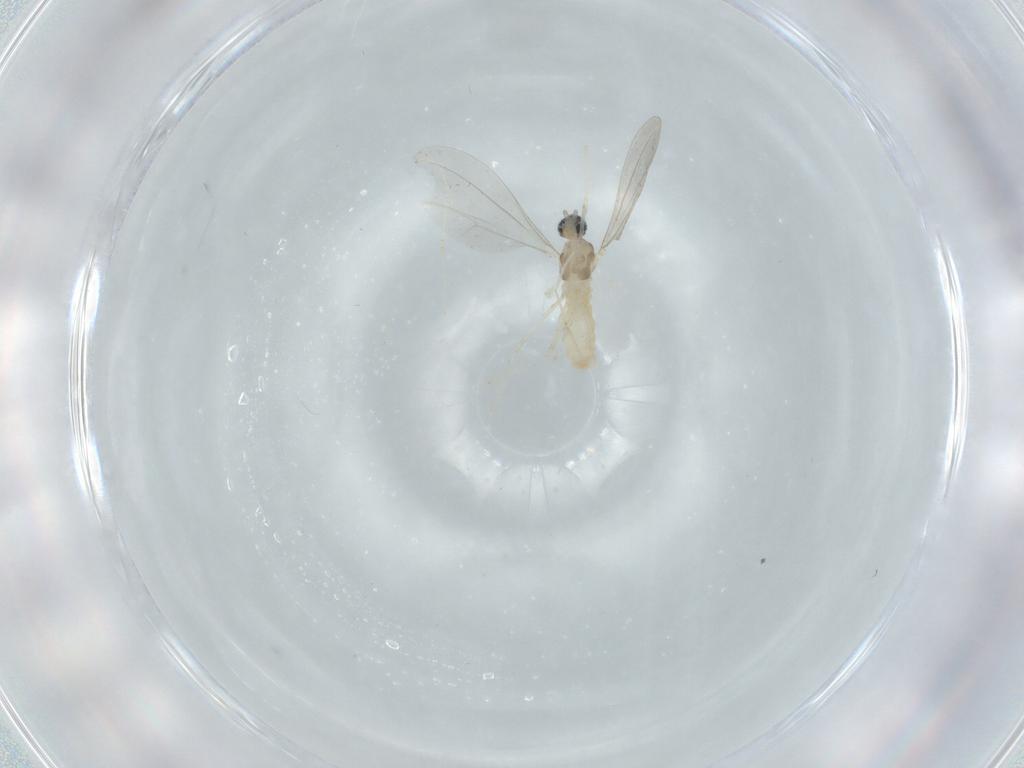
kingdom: Animalia
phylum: Arthropoda
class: Insecta
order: Diptera
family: Cecidomyiidae
